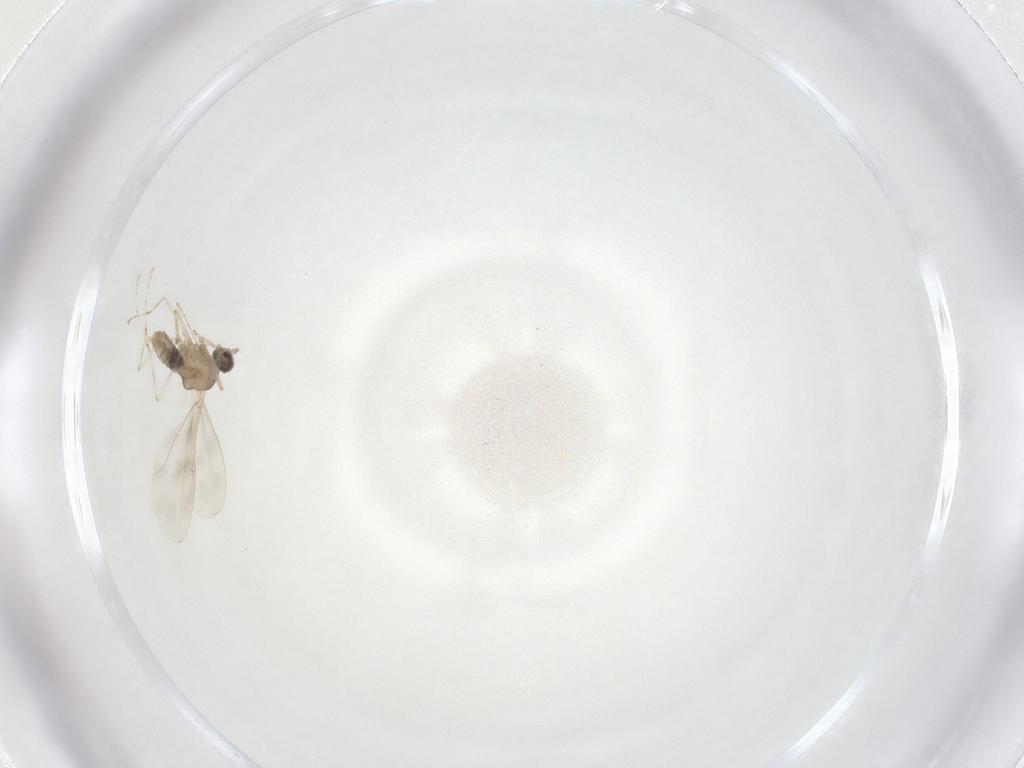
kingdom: Animalia
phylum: Arthropoda
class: Insecta
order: Diptera
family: Cecidomyiidae
